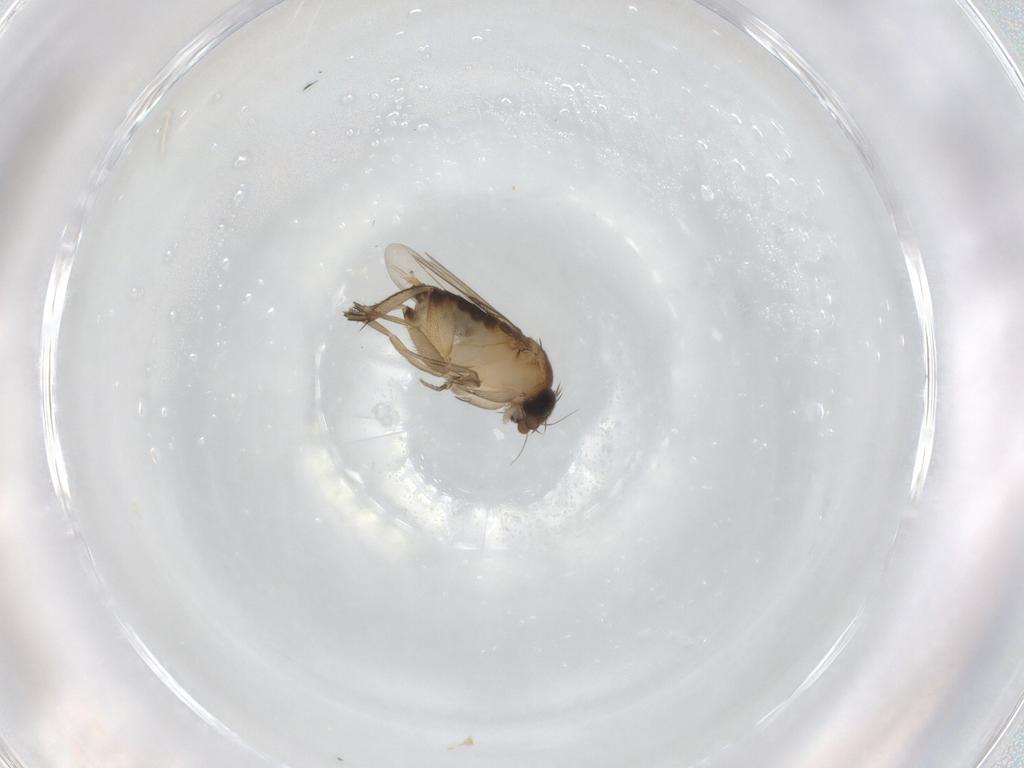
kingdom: Animalia
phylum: Arthropoda
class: Insecta
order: Diptera
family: Phoridae
